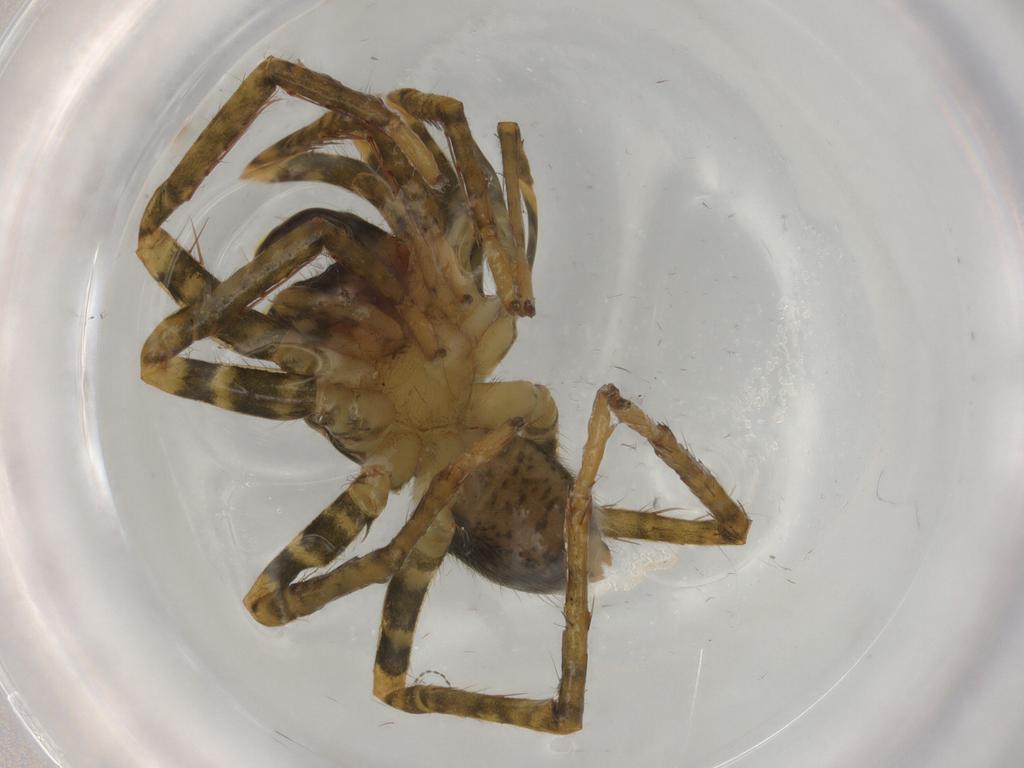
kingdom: Animalia
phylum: Arthropoda
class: Arachnida
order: Araneae
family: Ctenidae
